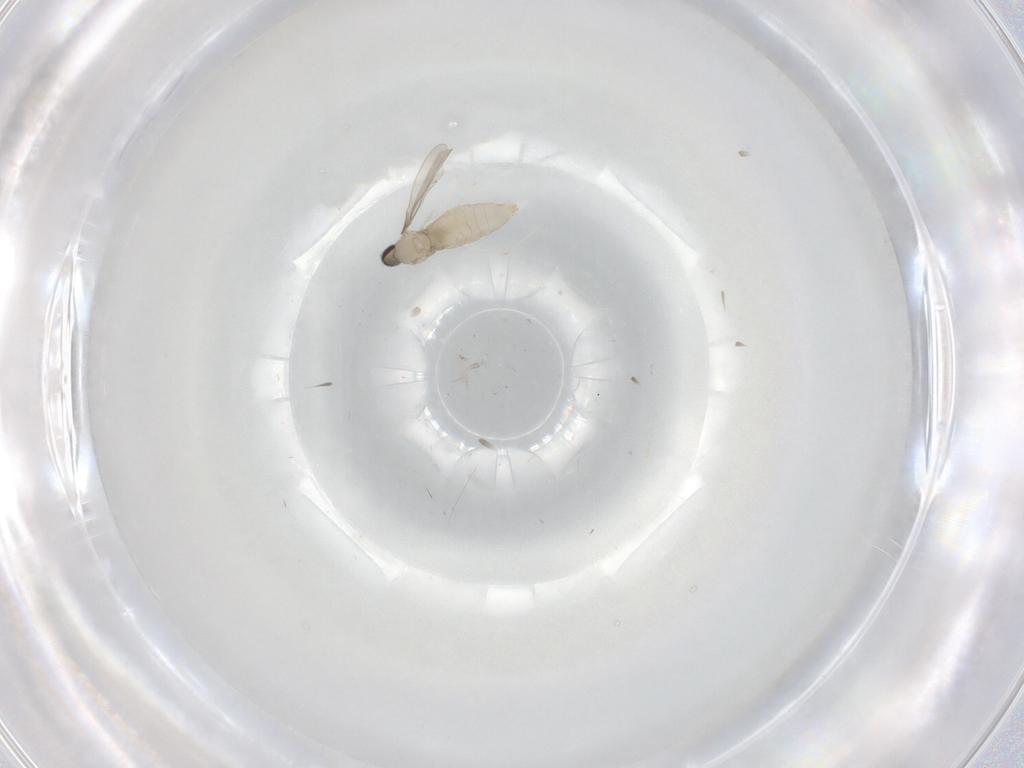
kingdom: Animalia
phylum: Arthropoda
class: Insecta
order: Diptera
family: Cecidomyiidae
